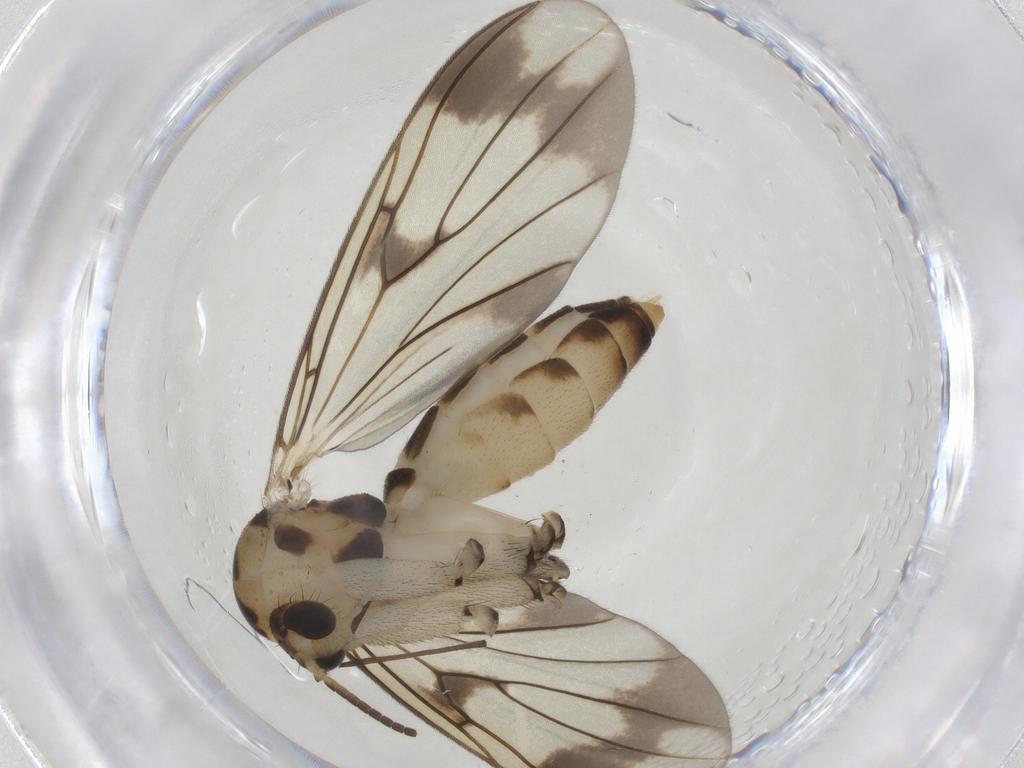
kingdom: Animalia
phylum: Arthropoda
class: Insecta
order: Diptera
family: Mycetophilidae
